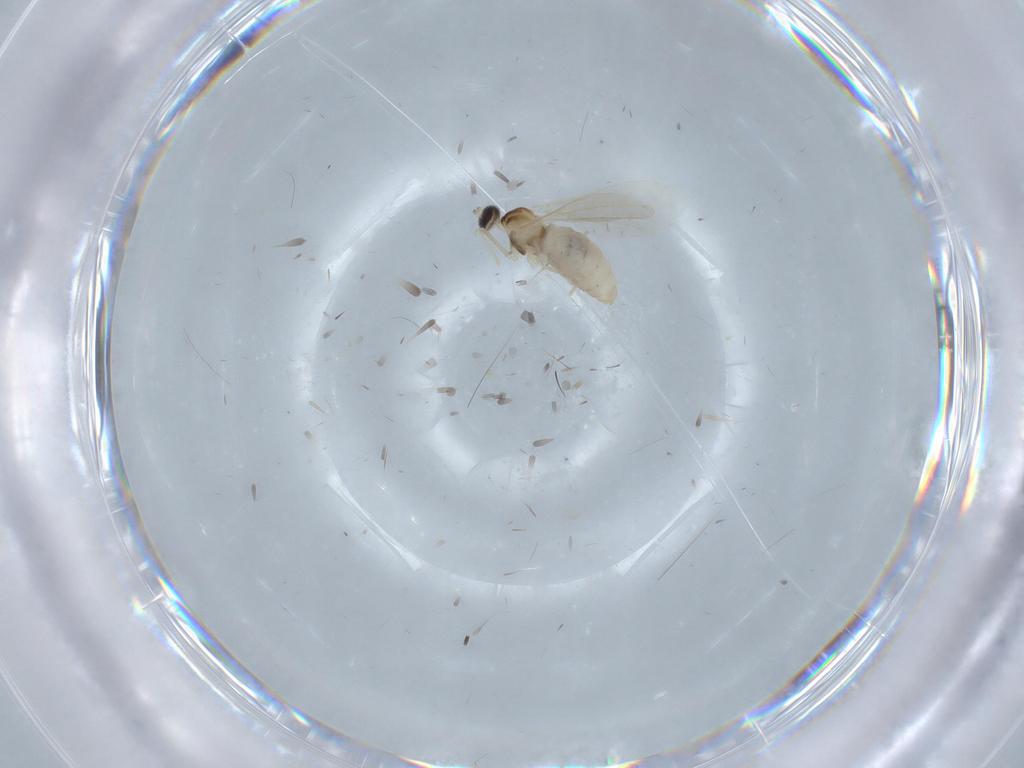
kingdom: Animalia
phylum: Arthropoda
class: Insecta
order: Diptera
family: Cecidomyiidae
